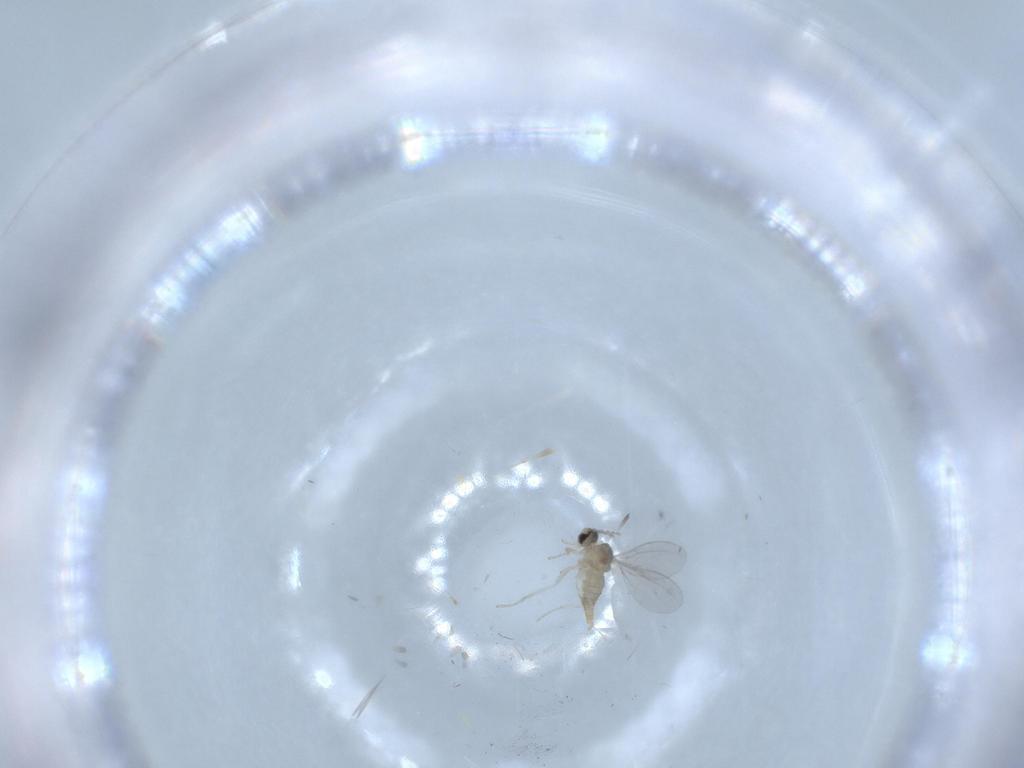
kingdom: Animalia
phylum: Arthropoda
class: Insecta
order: Diptera
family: Cecidomyiidae
